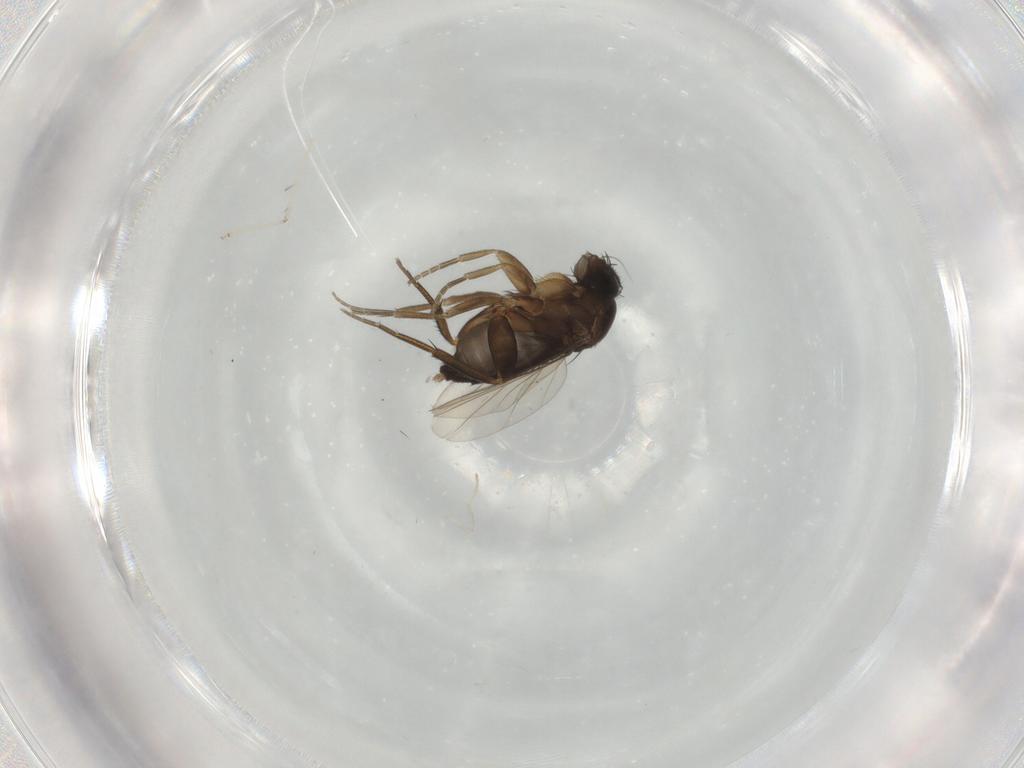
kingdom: Animalia
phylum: Arthropoda
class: Insecta
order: Diptera
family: Phoridae
